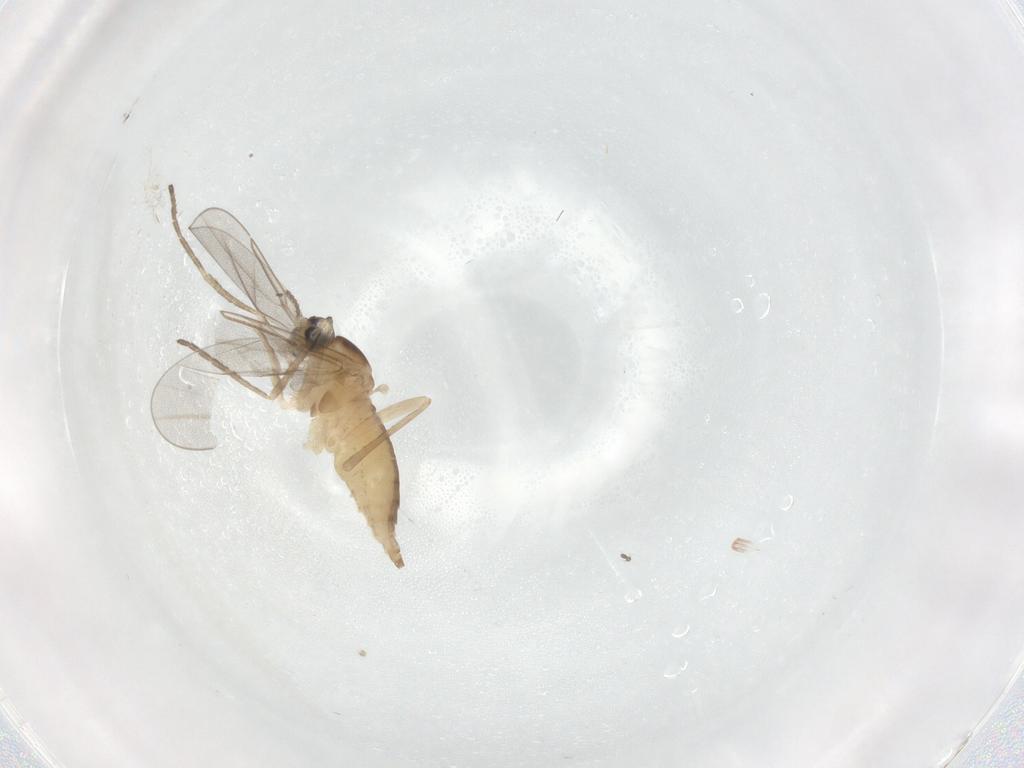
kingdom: Animalia
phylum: Arthropoda
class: Insecta
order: Diptera
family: Cecidomyiidae
